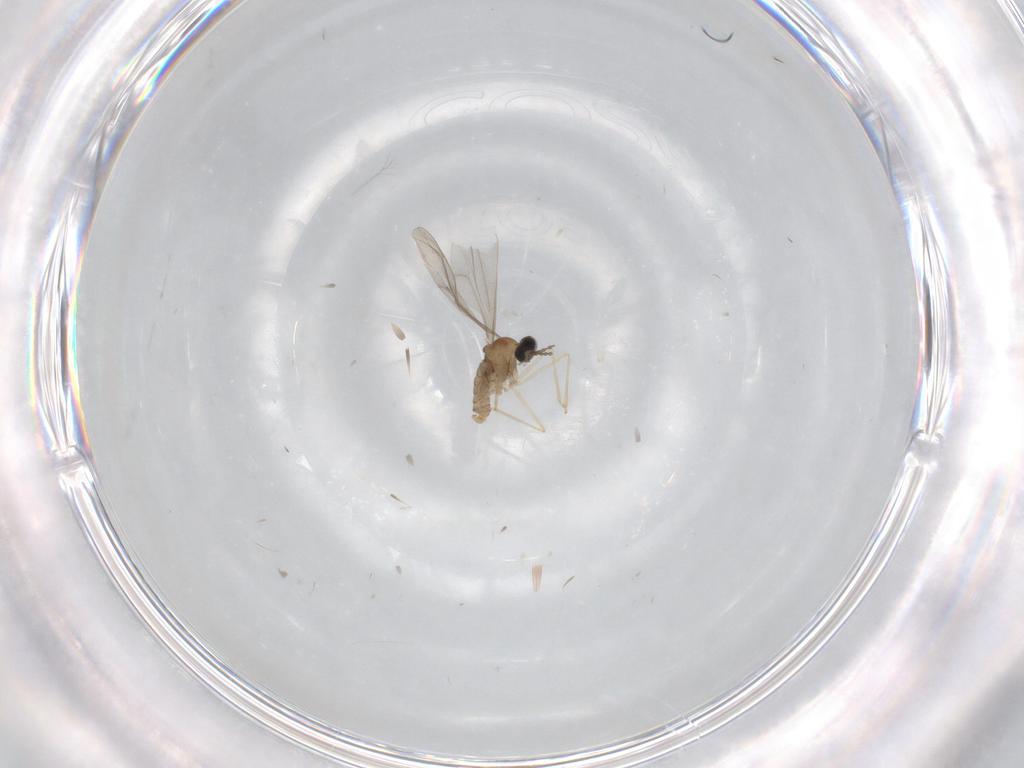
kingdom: Animalia
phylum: Arthropoda
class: Insecta
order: Diptera
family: Cecidomyiidae
